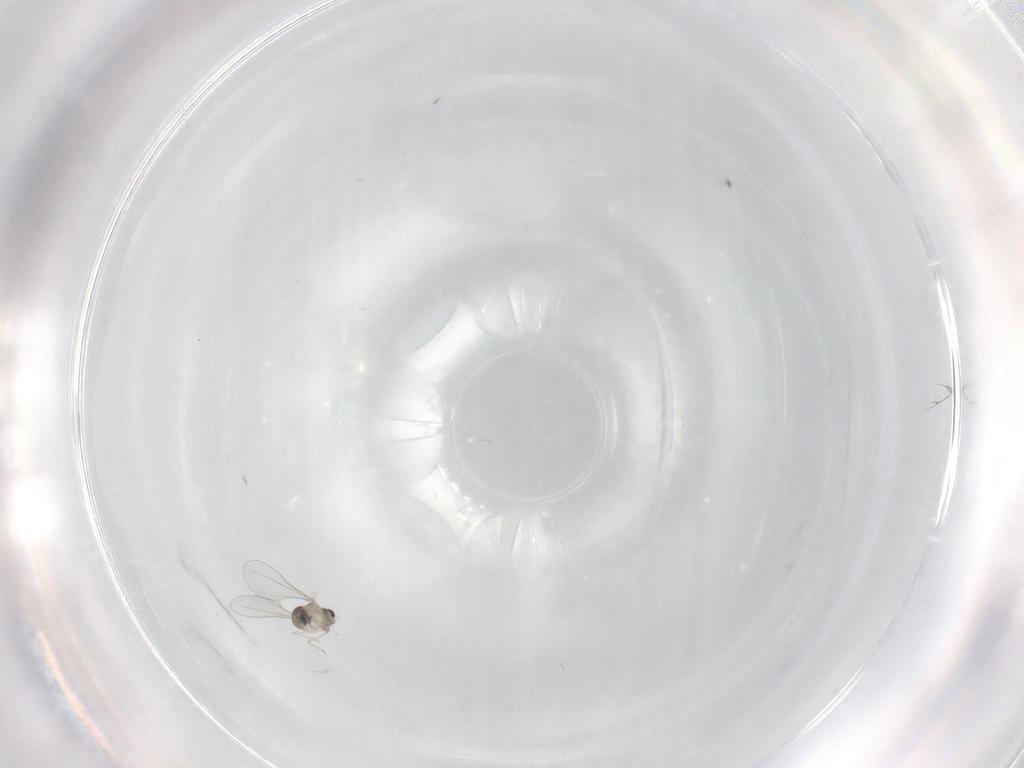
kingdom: Animalia
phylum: Arthropoda
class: Insecta
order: Diptera
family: Cecidomyiidae
